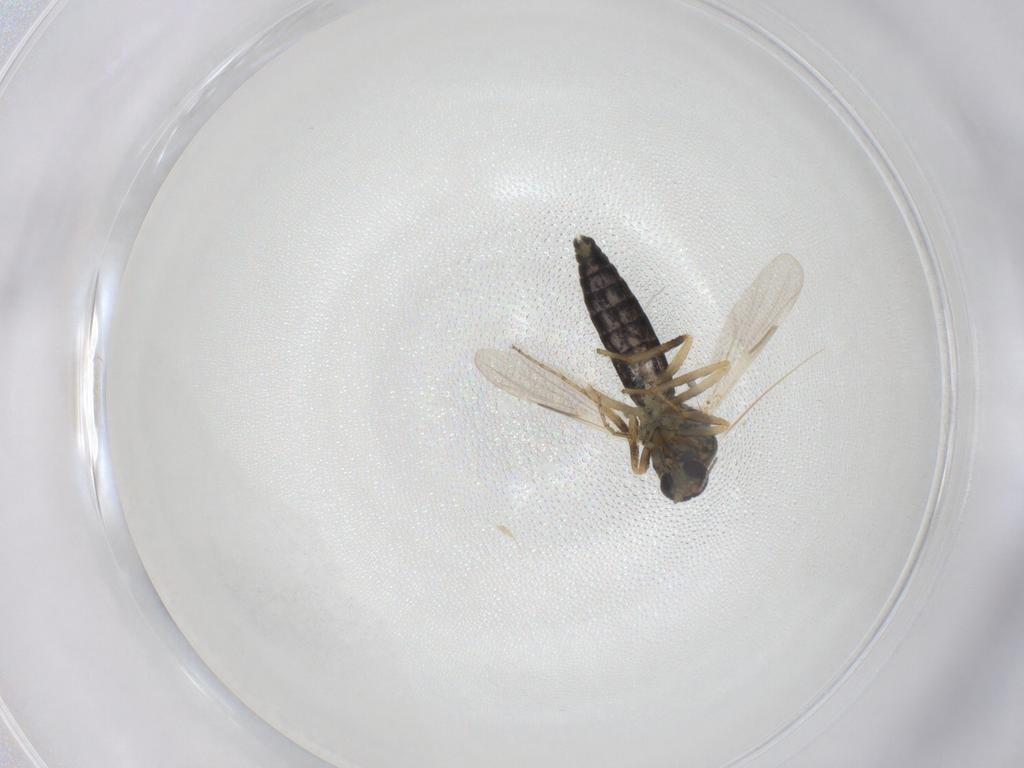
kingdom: Animalia
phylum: Arthropoda
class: Insecta
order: Diptera
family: Ceratopogonidae
